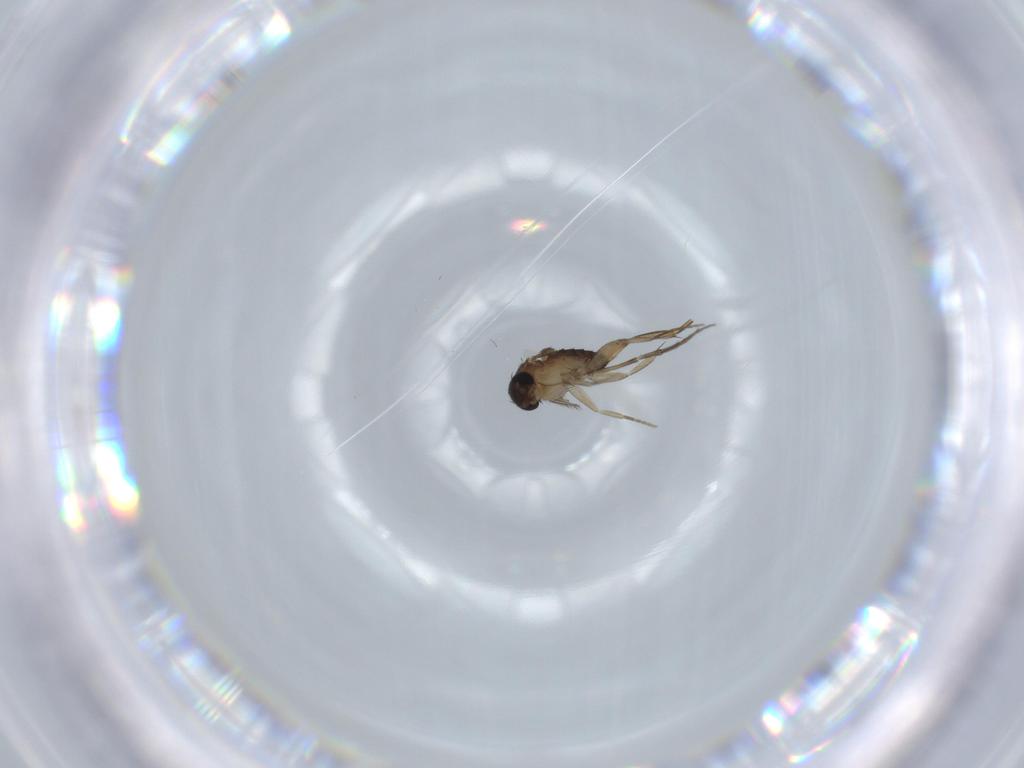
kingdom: Animalia
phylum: Arthropoda
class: Insecta
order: Diptera
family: Phoridae
